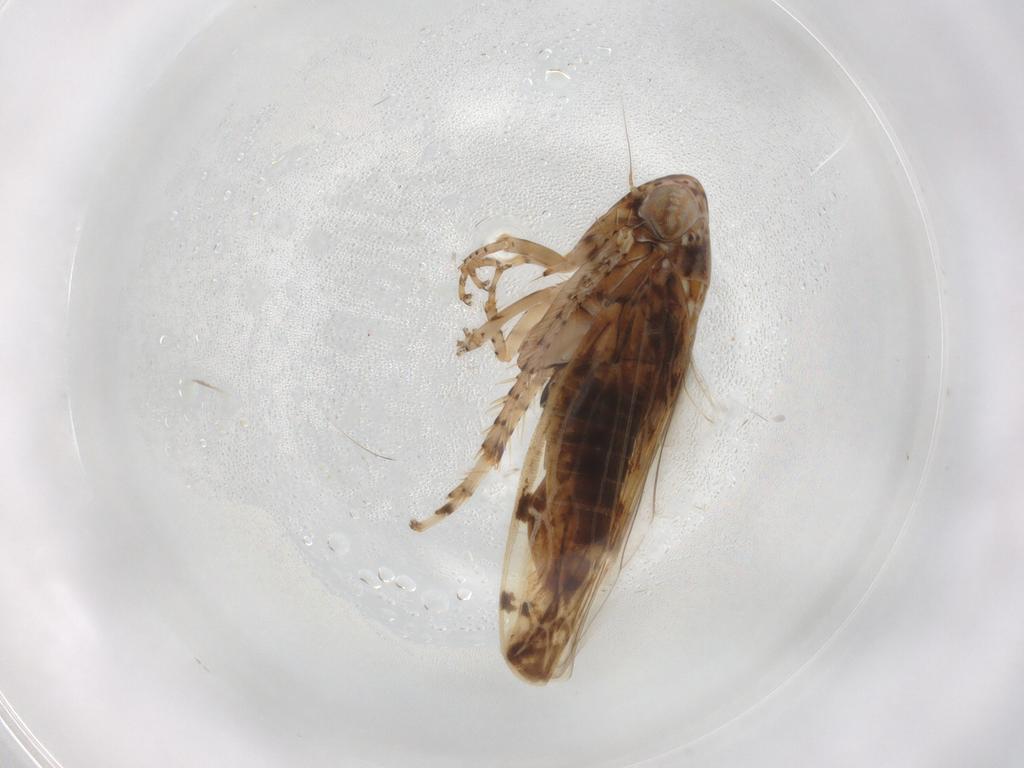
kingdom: Animalia
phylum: Arthropoda
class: Insecta
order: Hemiptera
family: Cicadellidae
